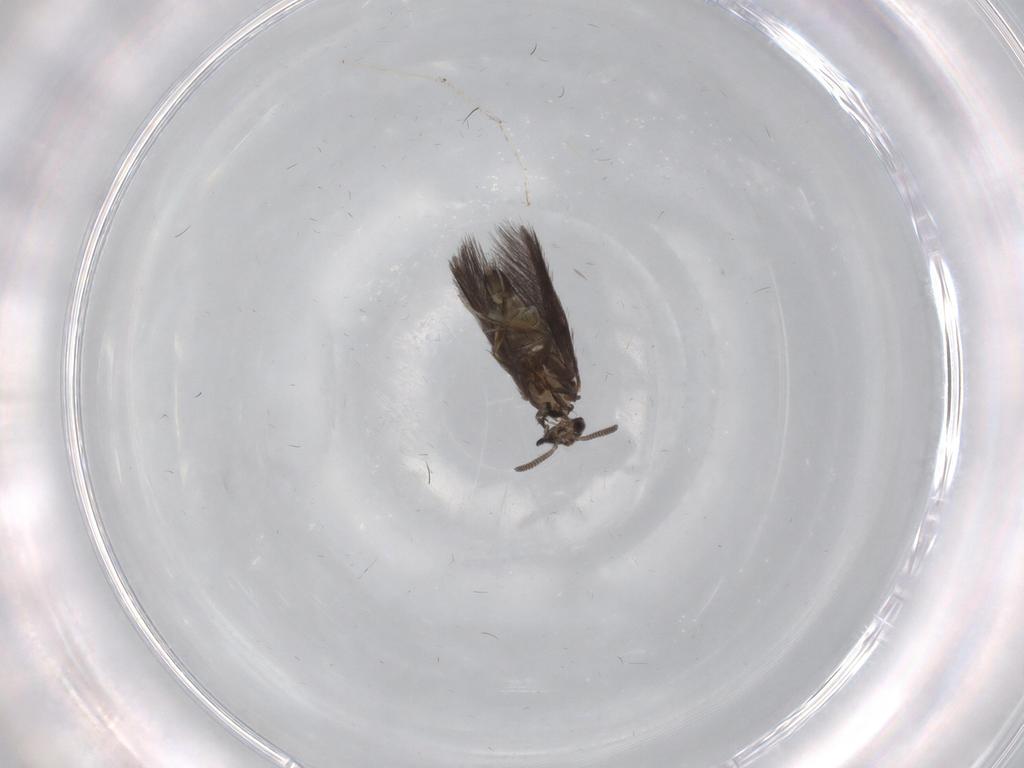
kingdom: Animalia
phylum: Arthropoda
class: Insecta
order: Trichoptera
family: Hydroptilidae
